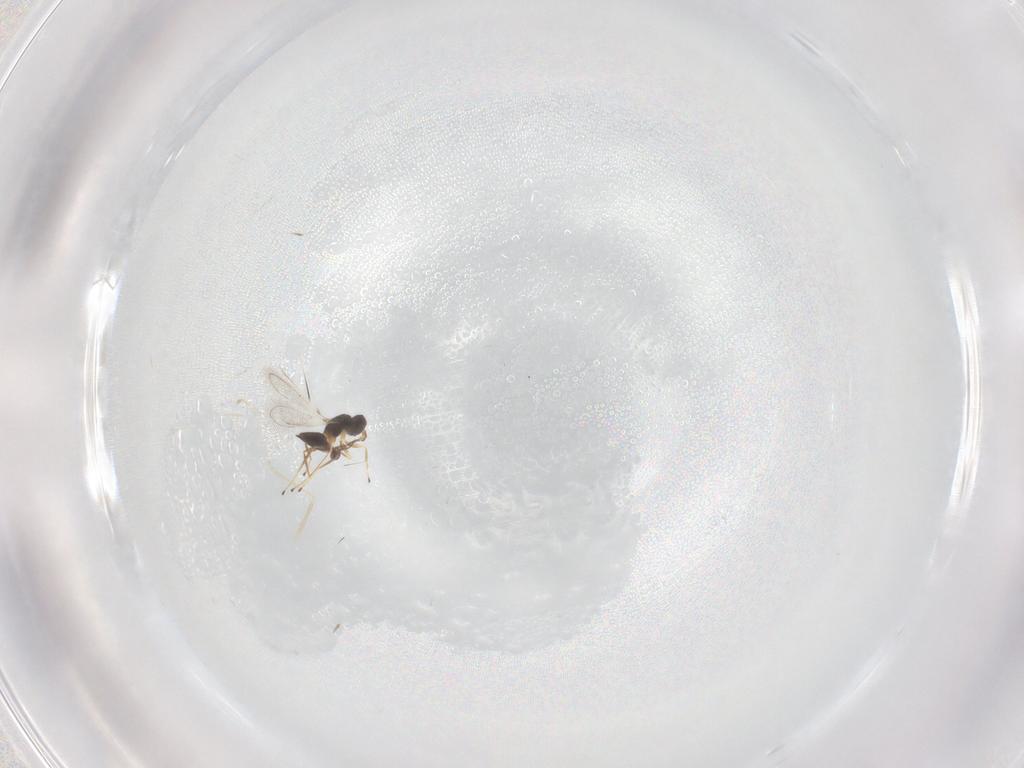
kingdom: Animalia
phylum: Arthropoda
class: Insecta
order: Hymenoptera
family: Mymaridae
